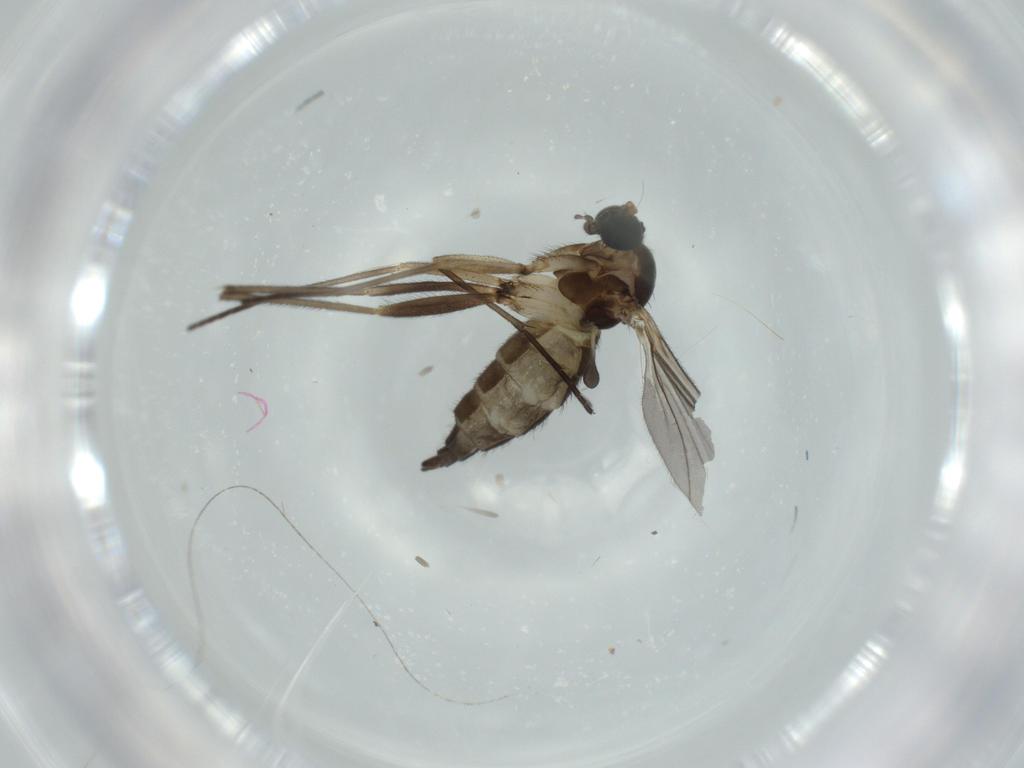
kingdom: Animalia
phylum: Arthropoda
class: Insecta
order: Diptera
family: Sciaridae
